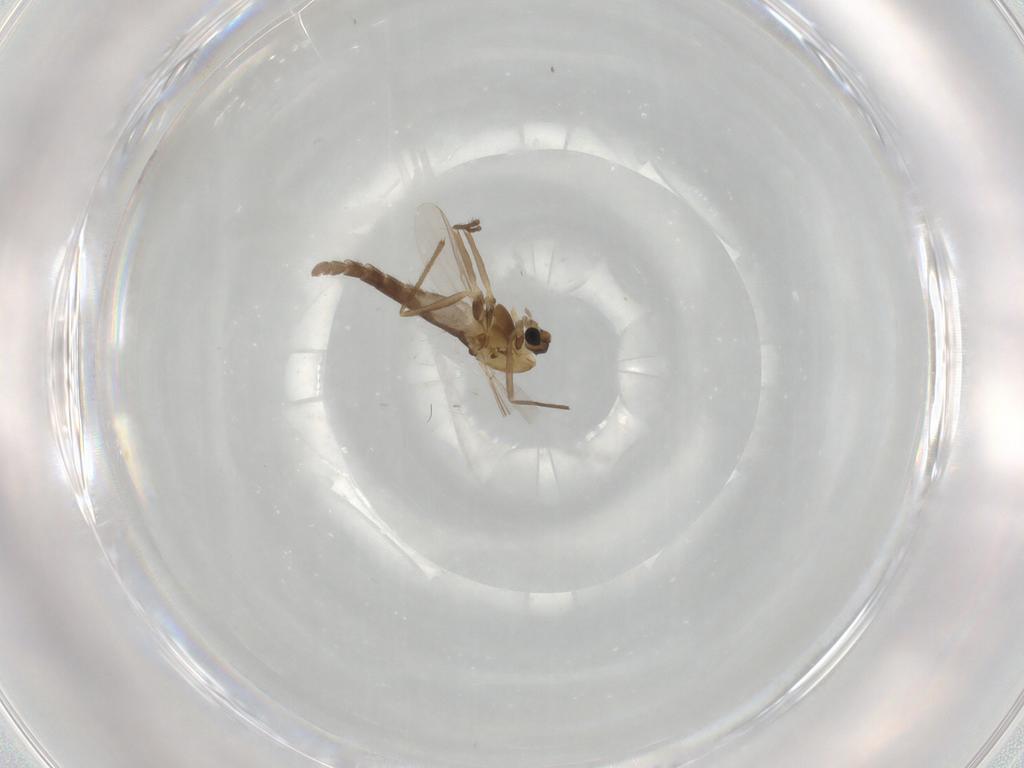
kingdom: Animalia
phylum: Arthropoda
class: Insecta
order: Diptera
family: Chironomidae
